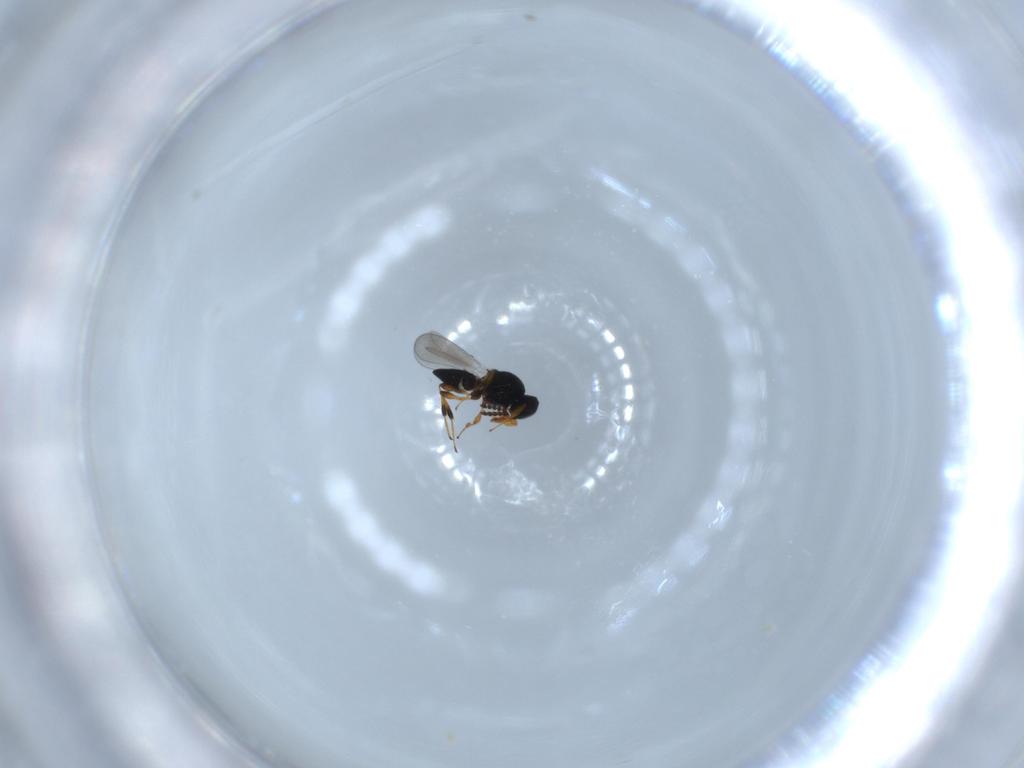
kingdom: Animalia
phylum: Arthropoda
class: Insecta
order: Hymenoptera
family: Platygastridae
